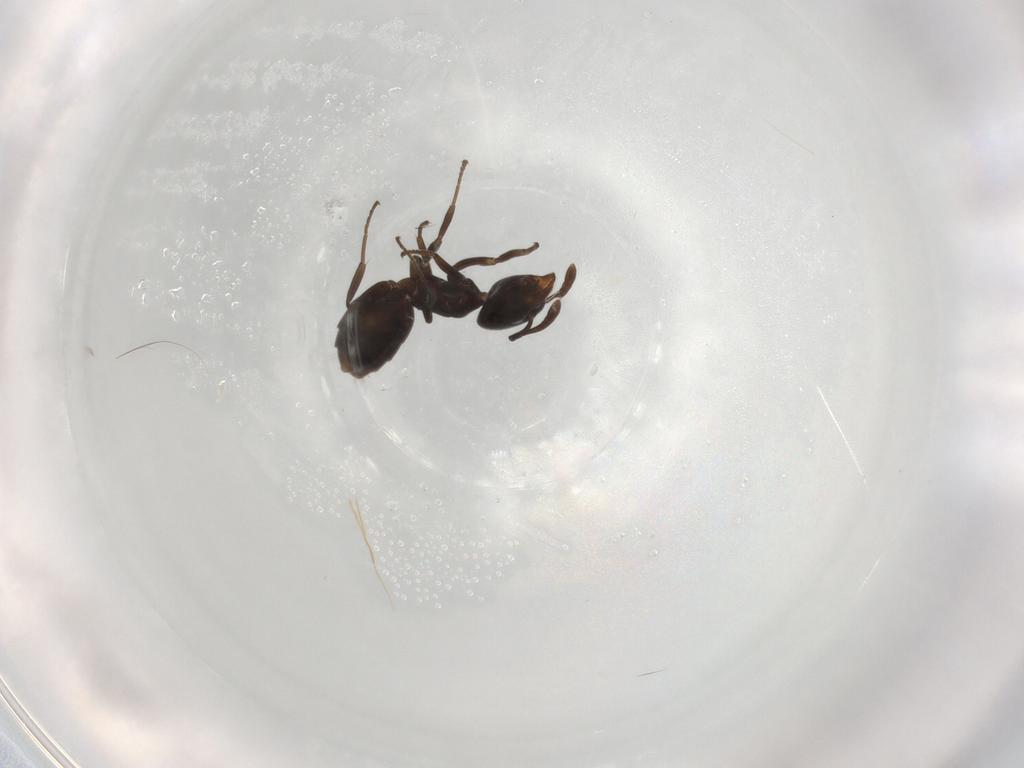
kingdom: Animalia
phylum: Arthropoda
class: Insecta
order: Hymenoptera
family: Formicidae
